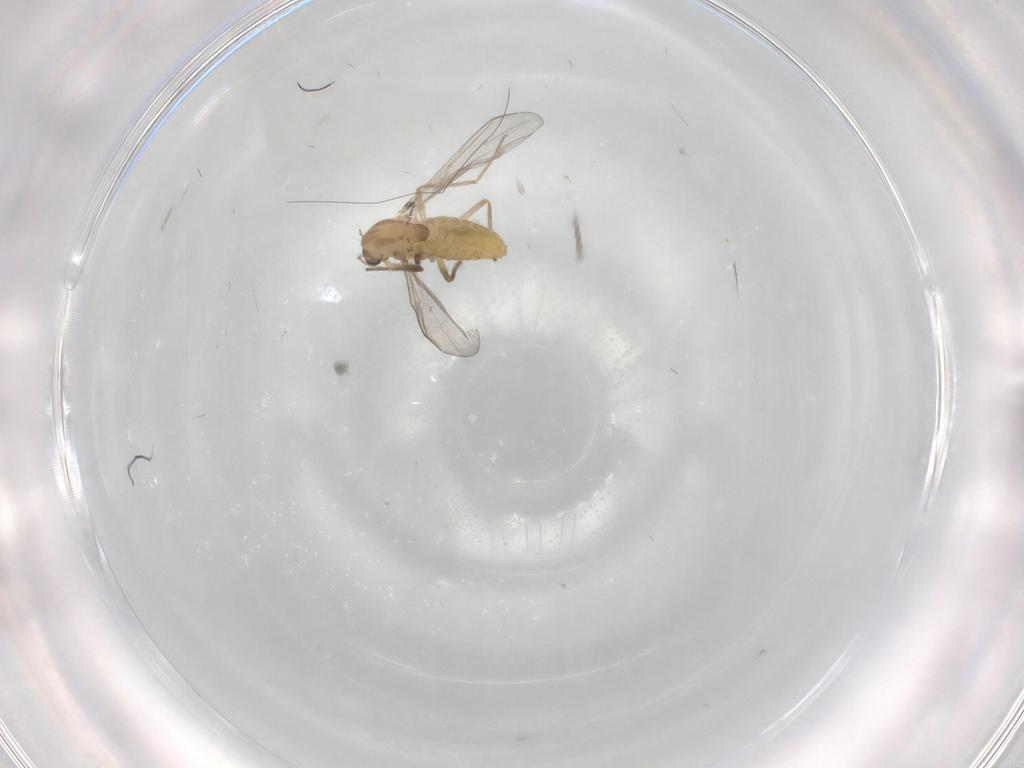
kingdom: Animalia
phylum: Arthropoda
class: Insecta
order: Diptera
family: Chironomidae
